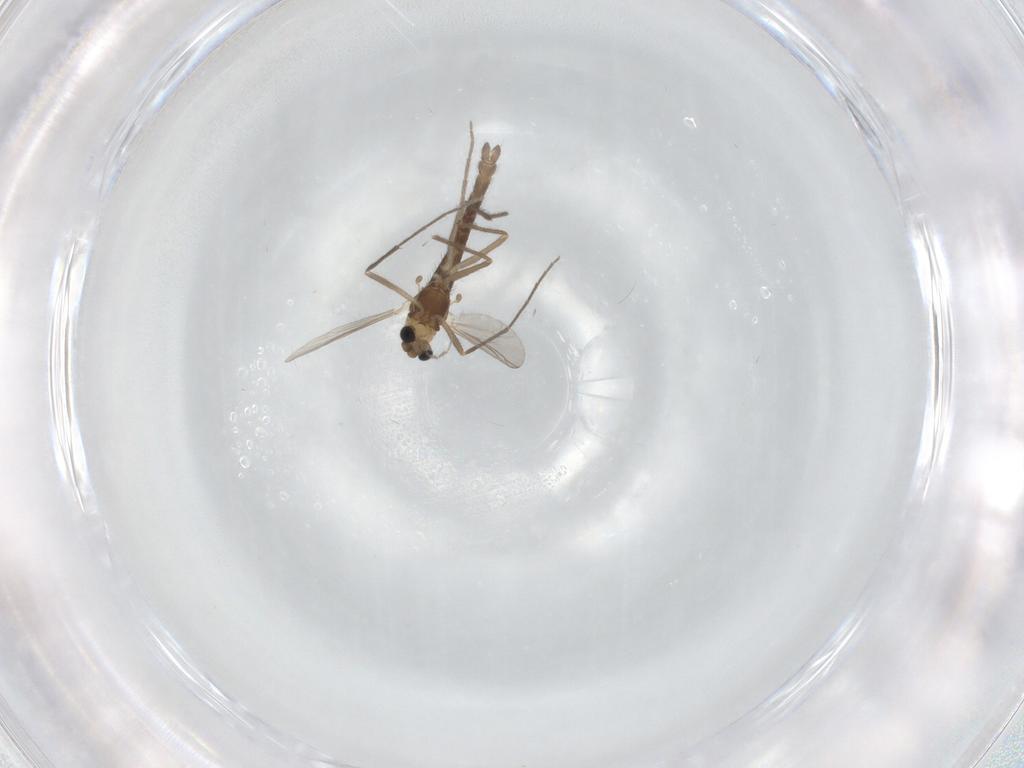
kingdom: Animalia
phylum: Arthropoda
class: Insecta
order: Diptera
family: Chironomidae
